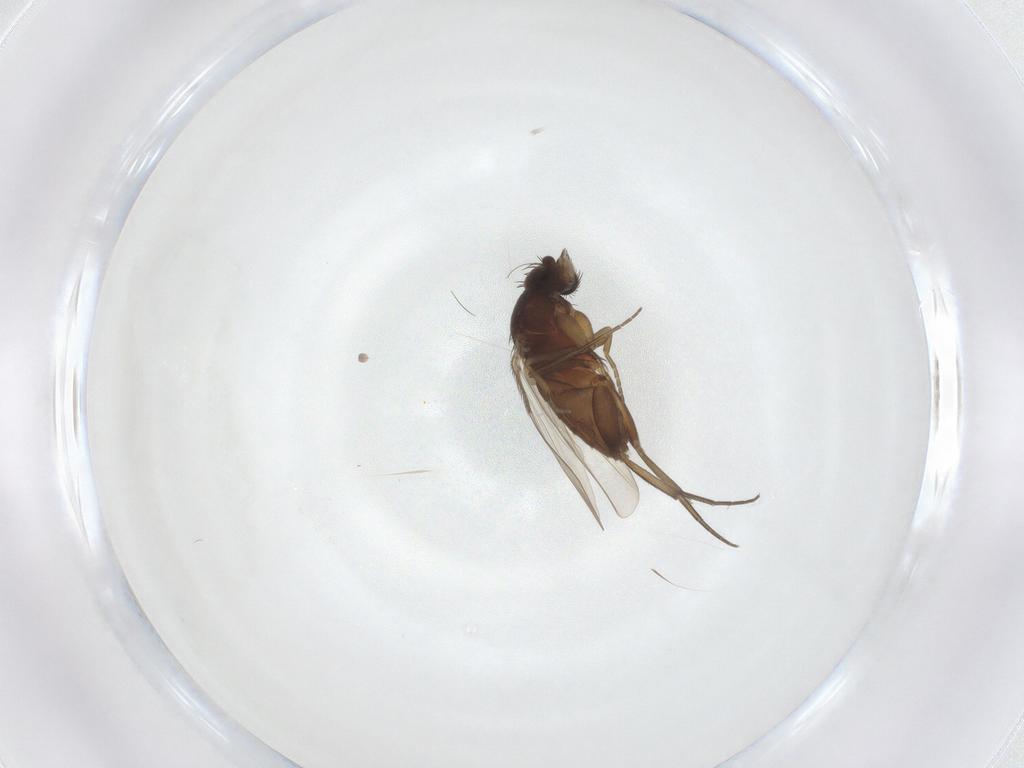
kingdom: Animalia
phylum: Arthropoda
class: Insecta
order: Diptera
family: Phoridae
